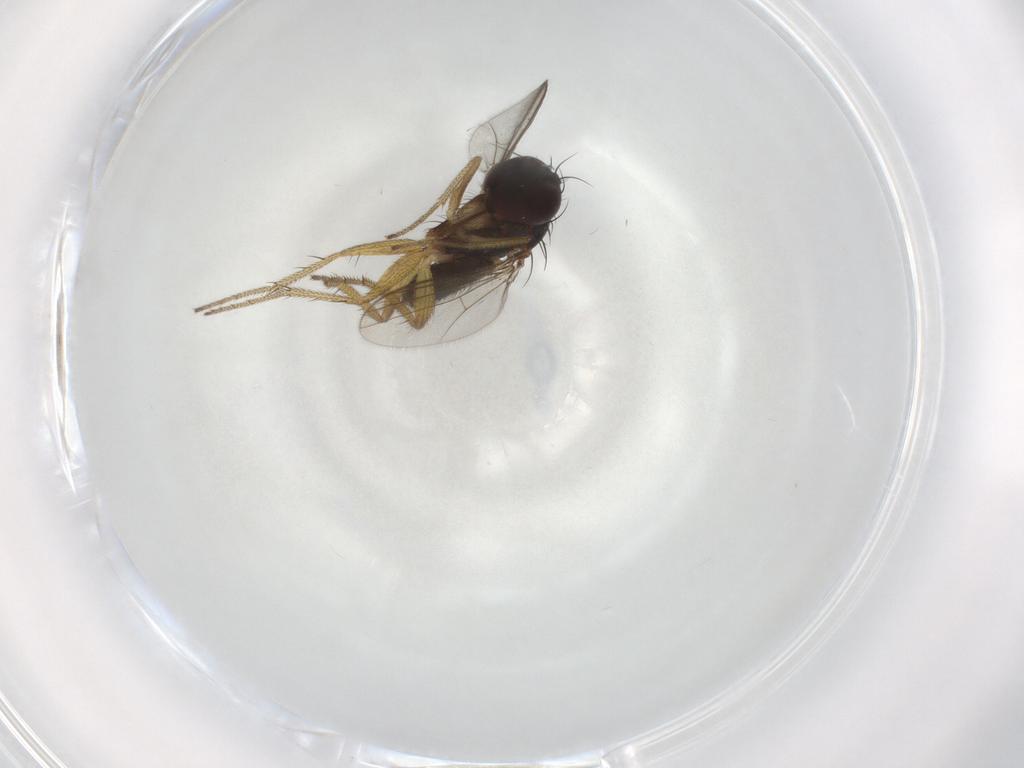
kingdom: Animalia
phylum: Arthropoda
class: Insecta
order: Diptera
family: Dolichopodidae
